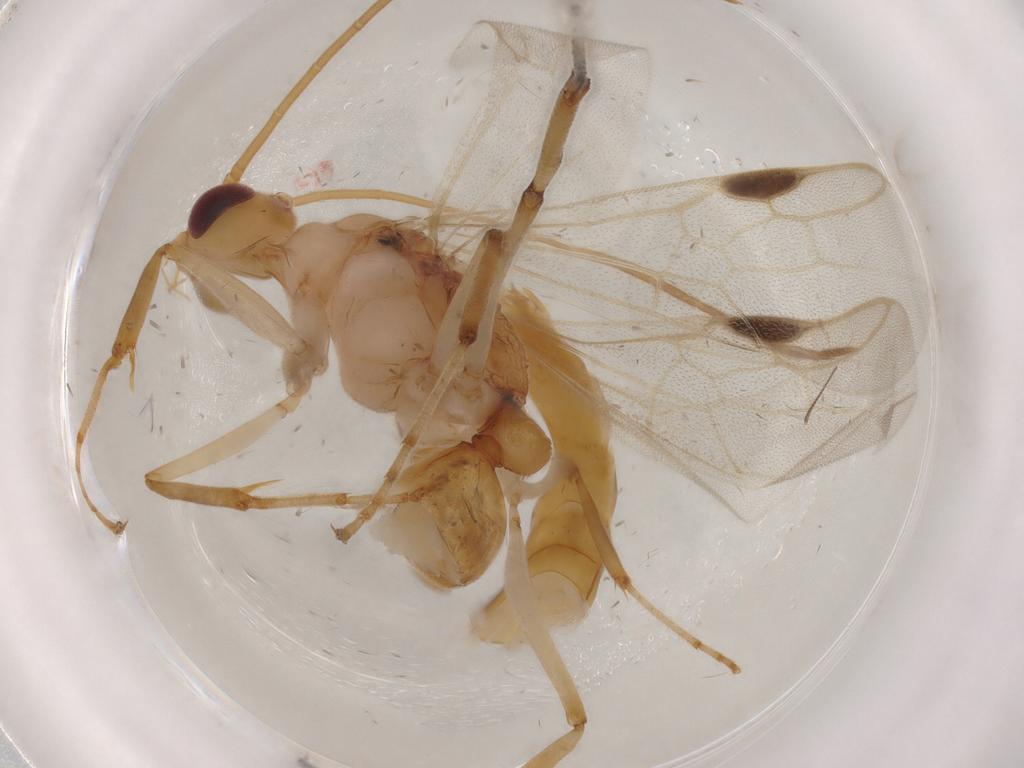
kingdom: Animalia
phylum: Arthropoda
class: Insecta
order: Hymenoptera
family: Formicidae
